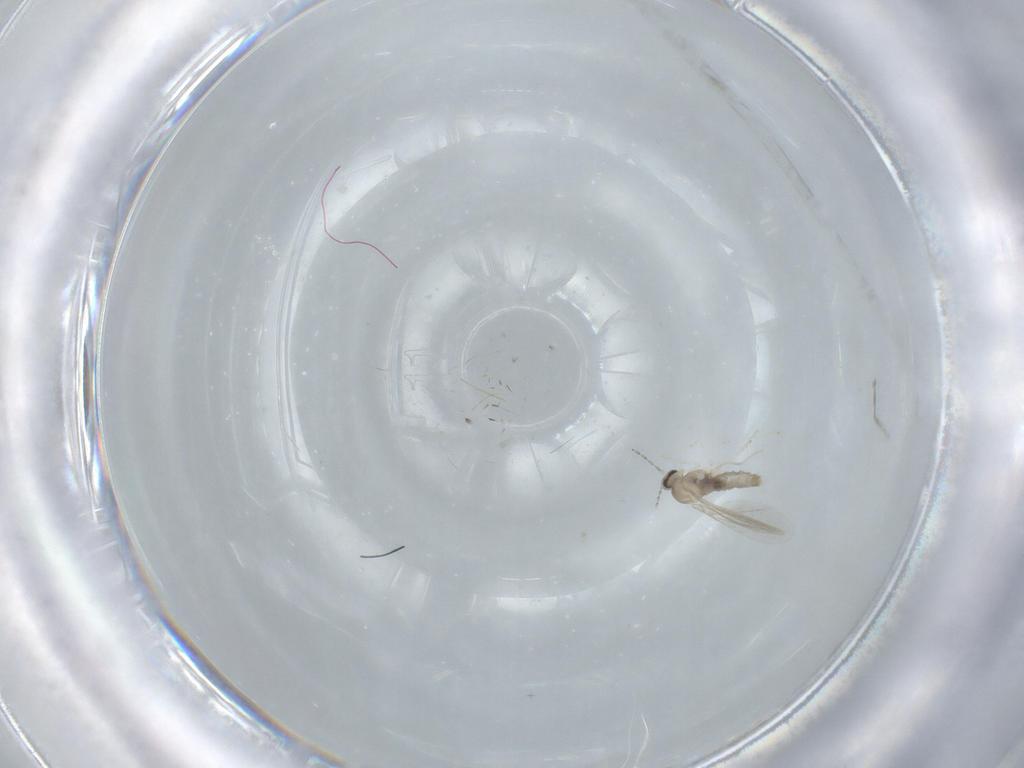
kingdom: Animalia
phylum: Arthropoda
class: Insecta
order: Diptera
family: Cecidomyiidae
